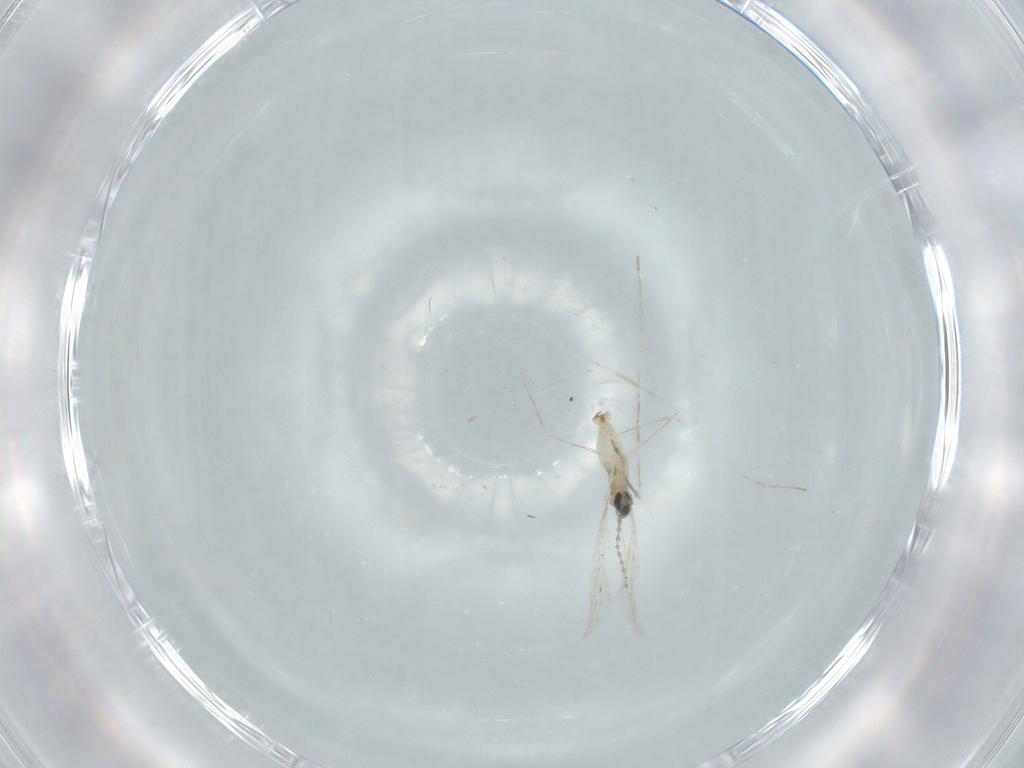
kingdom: Animalia
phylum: Arthropoda
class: Insecta
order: Diptera
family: Cecidomyiidae
